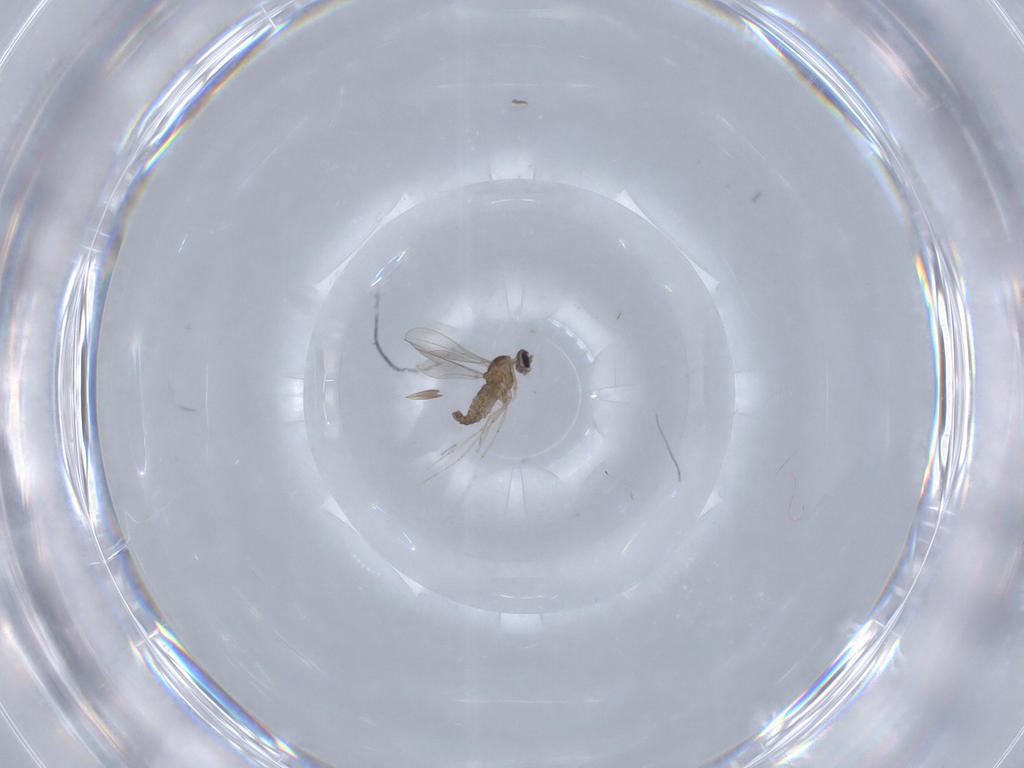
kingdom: Animalia
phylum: Arthropoda
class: Insecta
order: Diptera
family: Cecidomyiidae
